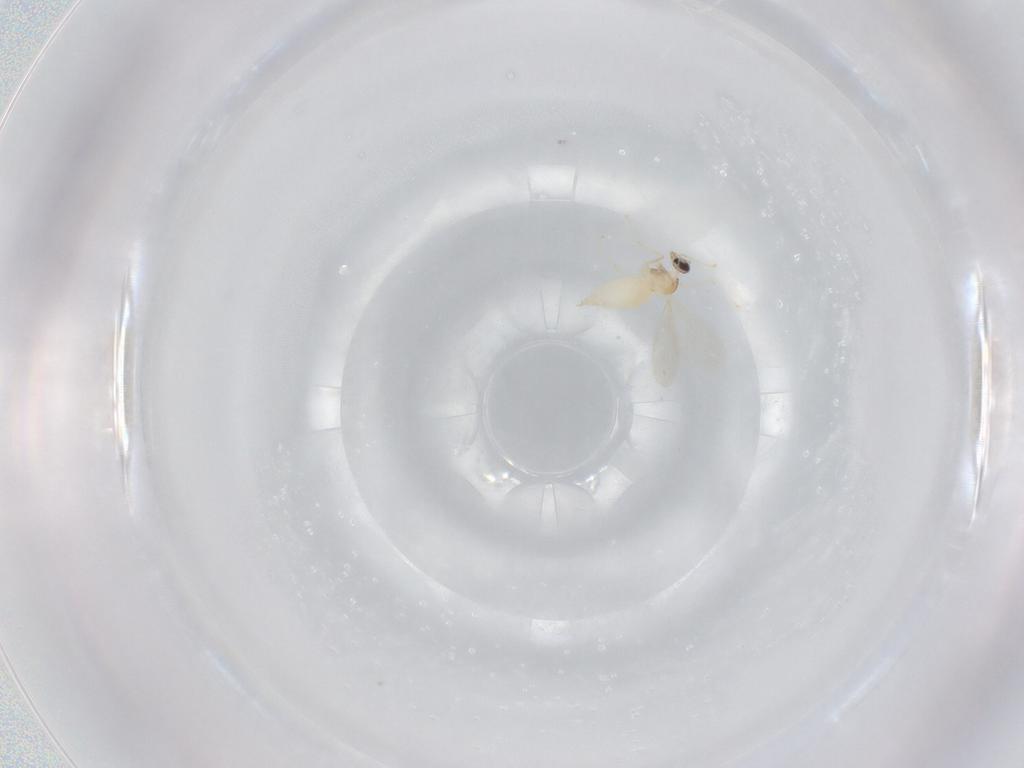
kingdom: Animalia
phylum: Arthropoda
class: Insecta
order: Diptera
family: Cecidomyiidae
